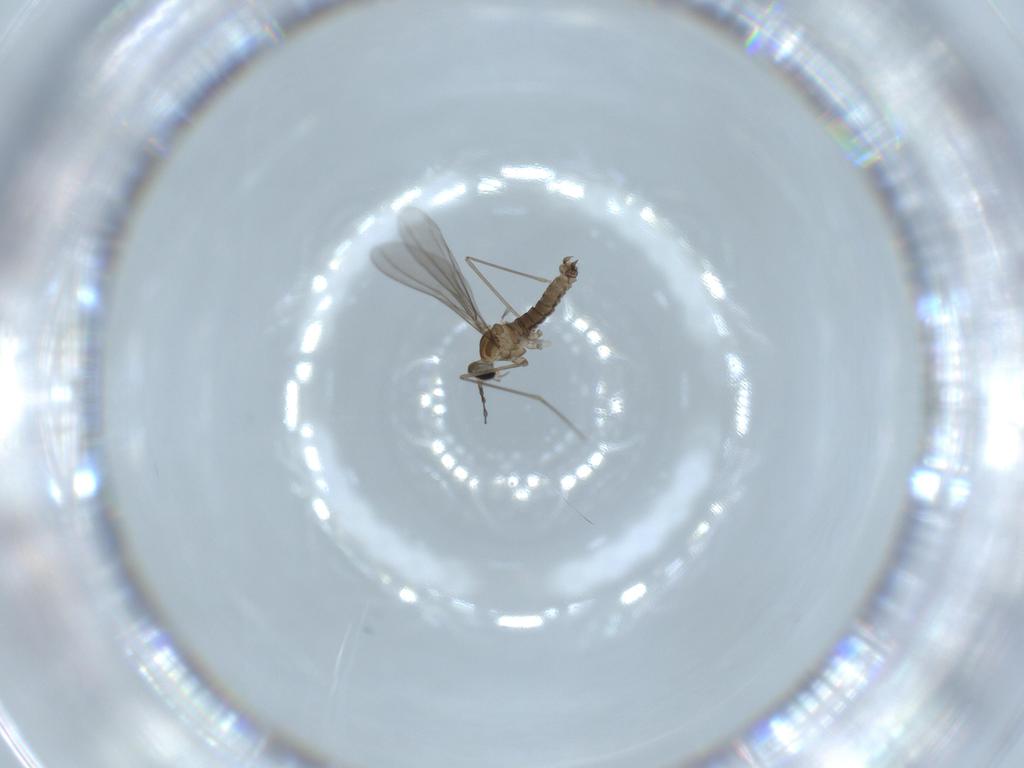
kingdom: Animalia
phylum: Arthropoda
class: Insecta
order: Diptera
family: Cecidomyiidae
